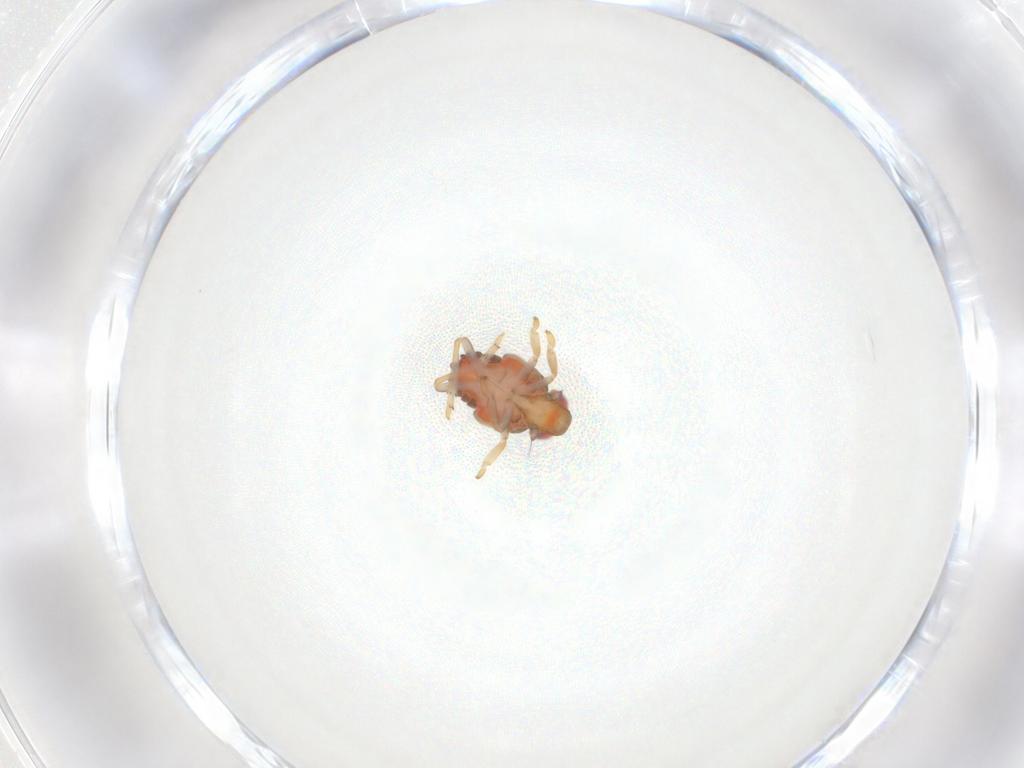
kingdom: Animalia
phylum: Arthropoda
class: Insecta
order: Hemiptera
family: Issidae
